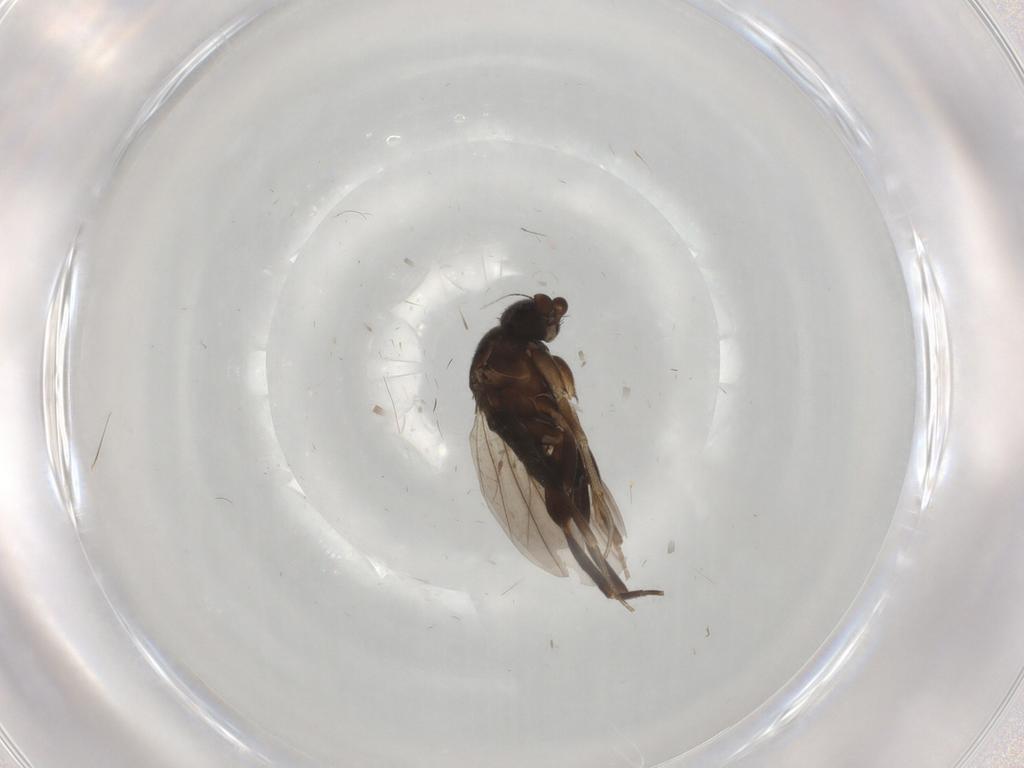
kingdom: Animalia
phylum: Arthropoda
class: Insecta
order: Diptera
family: Hybotidae
